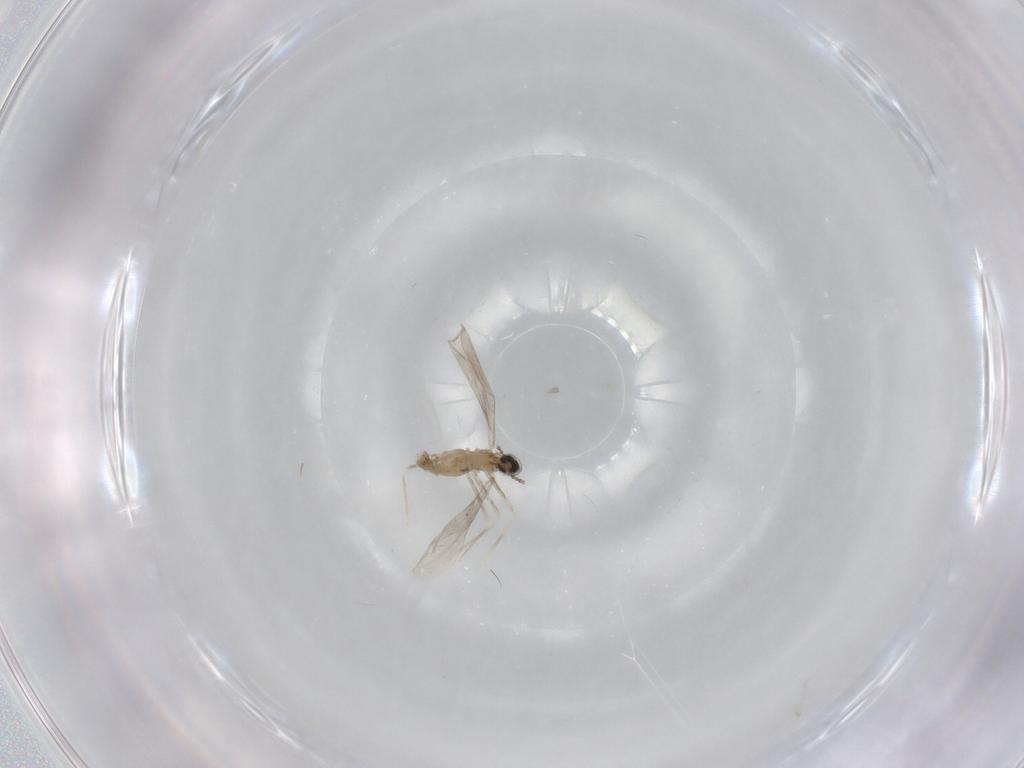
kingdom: Animalia
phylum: Arthropoda
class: Insecta
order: Diptera
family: Cecidomyiidae
